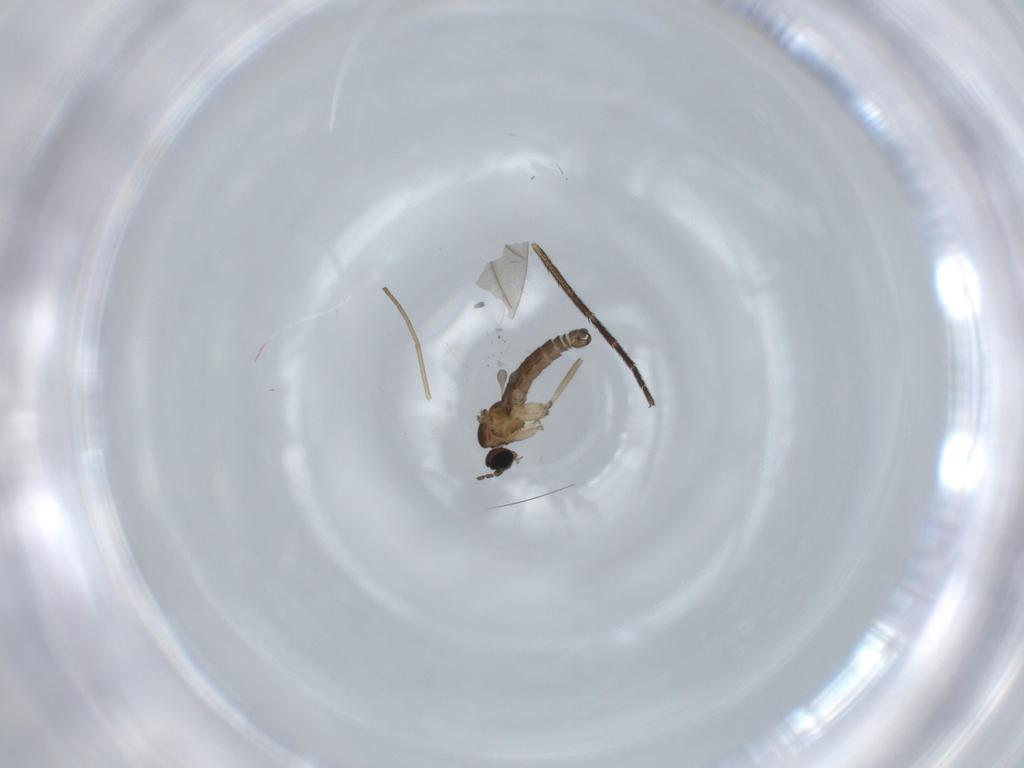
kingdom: Animalia
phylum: Arthropoda
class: Insecta
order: Diptera
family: Sciaridae
